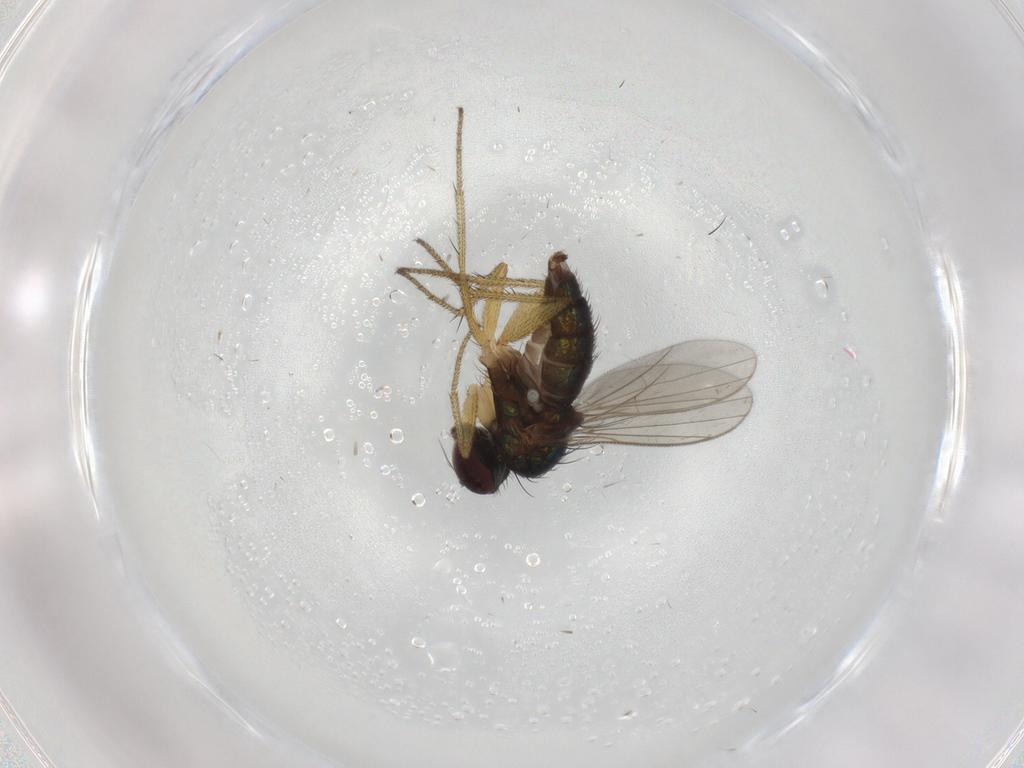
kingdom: Animalia
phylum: Arthropoda
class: Insecta
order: Diptera
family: Dolichopodidae
